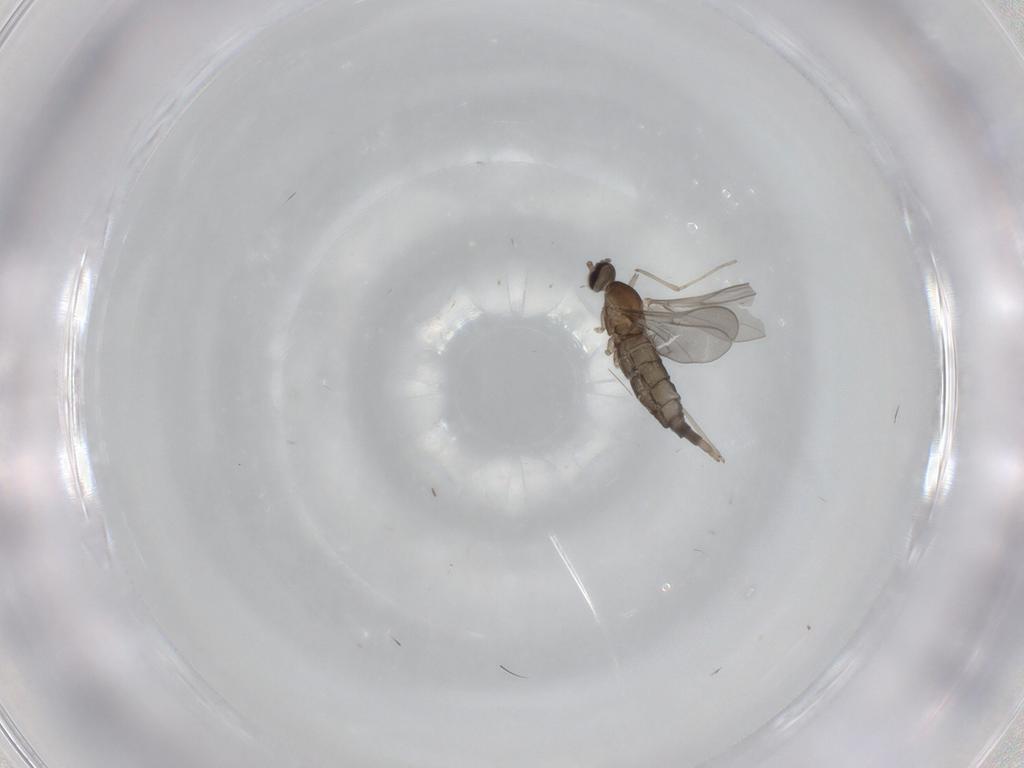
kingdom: Animalia
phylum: Arthropoda
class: Insecta
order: Diptera
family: Cecidomyiidae
